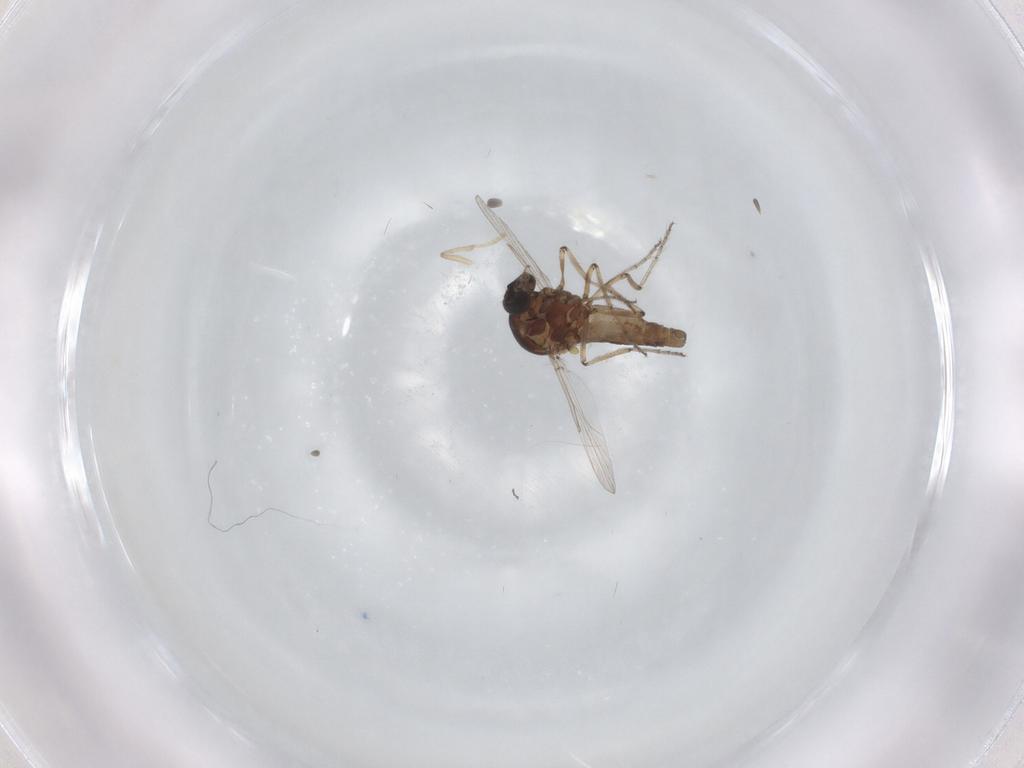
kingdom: Animalia
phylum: Arthropoda
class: Insecta
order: Diptera
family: Ceratopogonidae
